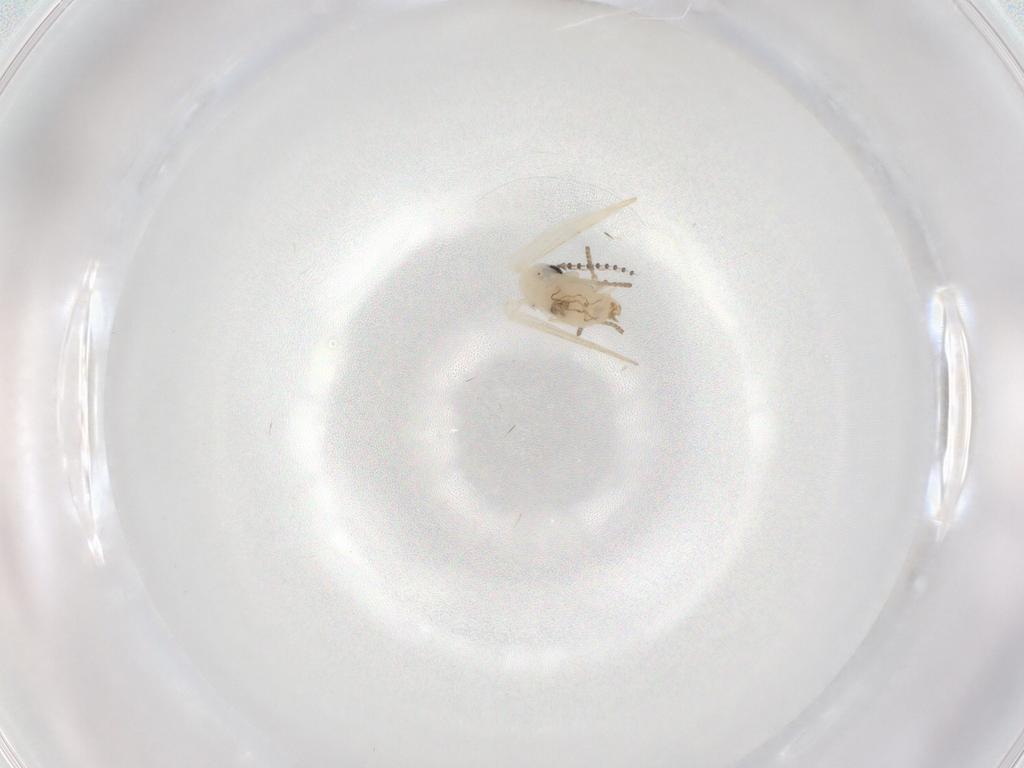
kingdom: Animalia
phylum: Arthropoda
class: Insecta
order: Diptera
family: Psychodidae
